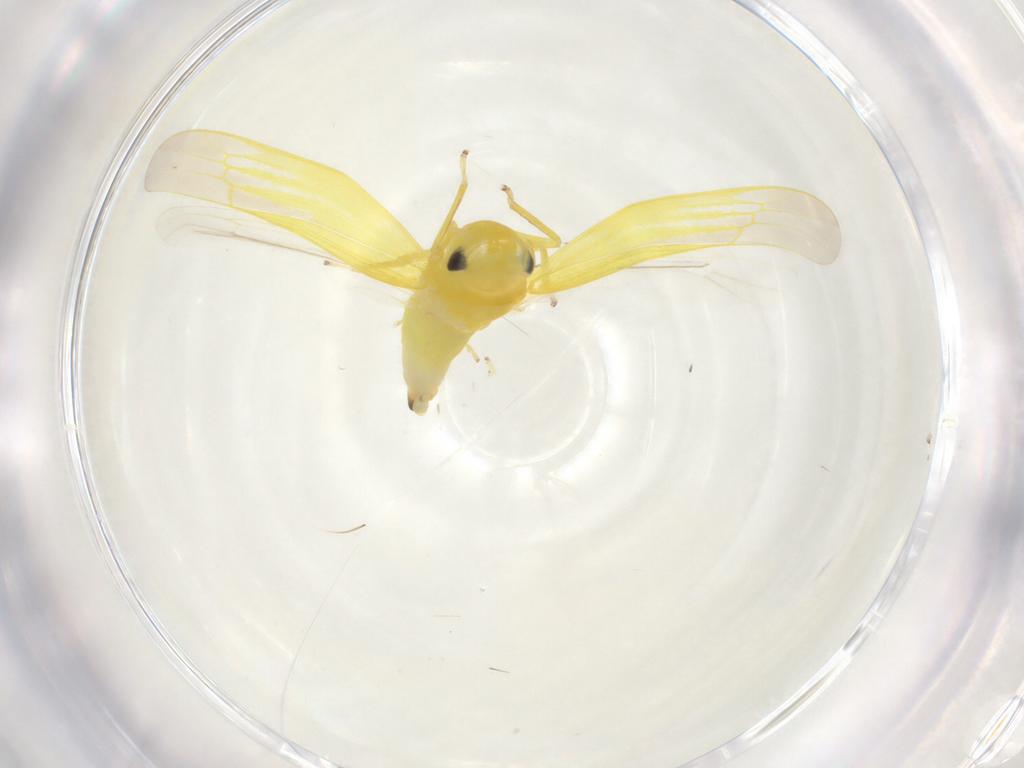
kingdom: Animalia
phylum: Arthropoda
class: Insecta
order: Hemiptera
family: Cicadellidae
